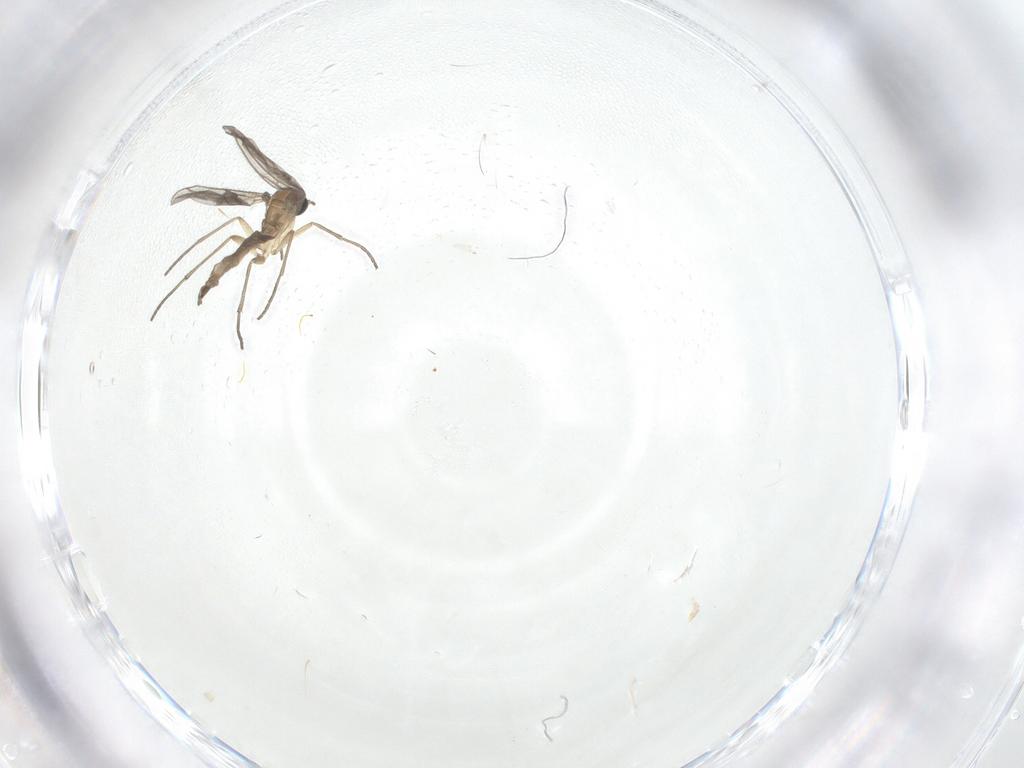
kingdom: Animalia
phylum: Arthropoda
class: Insecta
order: Diptera
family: Sciaridae
